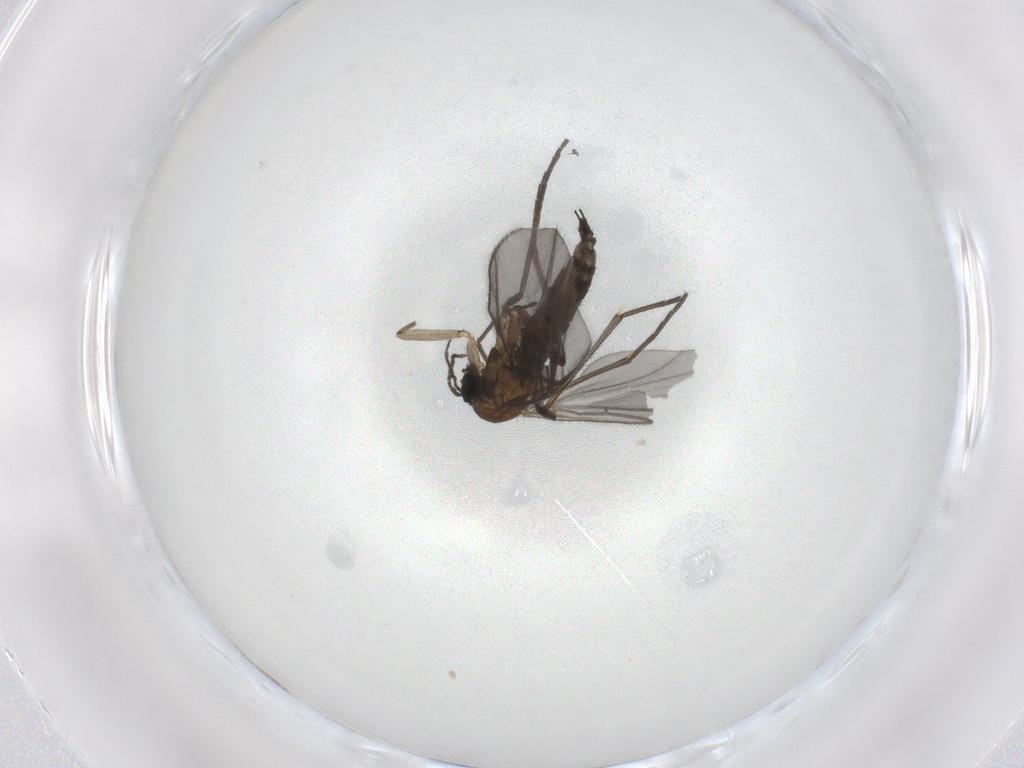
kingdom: Animalia
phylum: Arthropoda
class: Insecta
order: Diptera
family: Sciaridae
